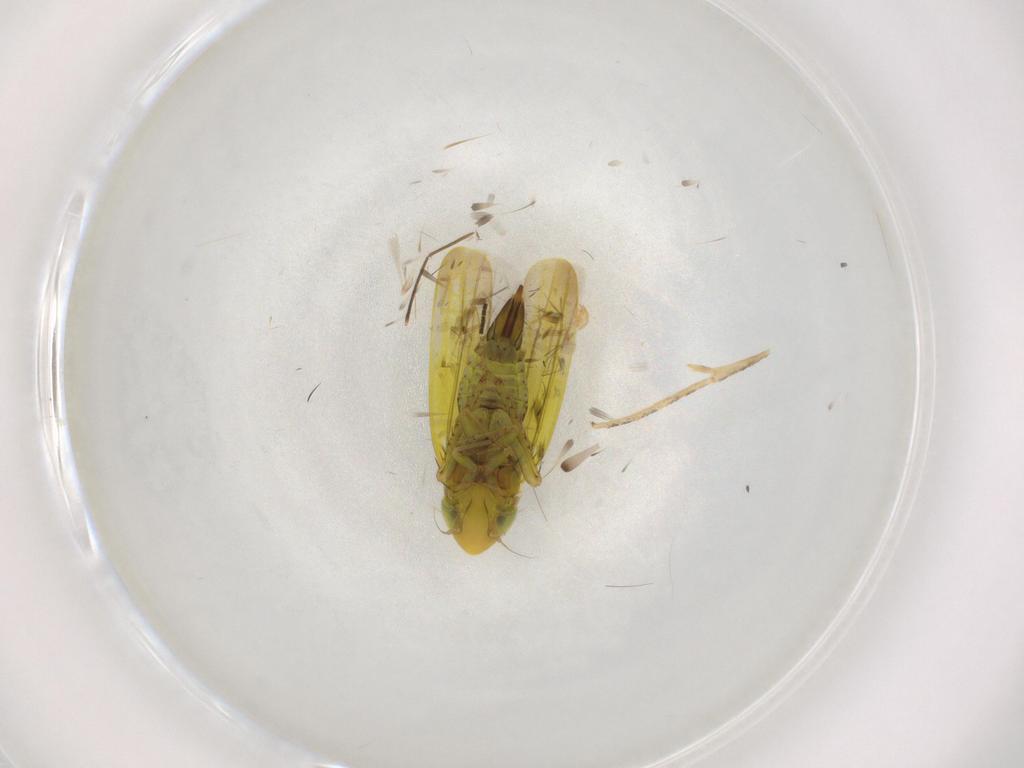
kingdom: Animalia
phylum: Arthropoda
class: Insecta
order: Hemiptera
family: Cicadellidae
